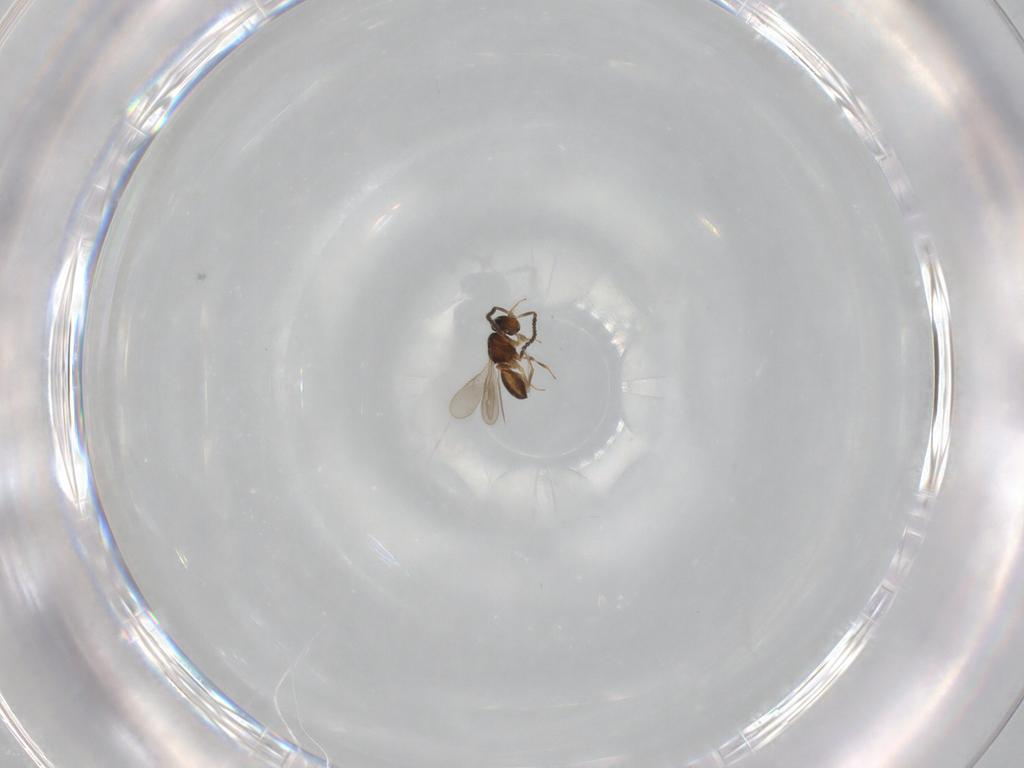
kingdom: Animalia
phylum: Arthropoda
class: Insecta
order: Hymenoptera
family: Scelionidae
